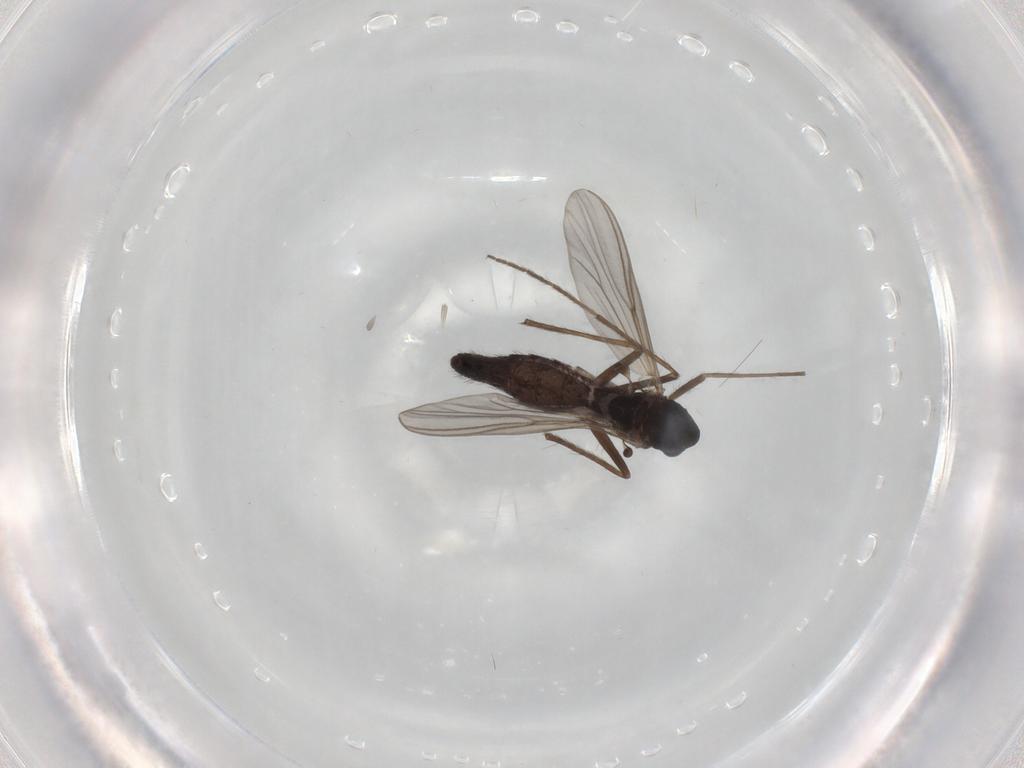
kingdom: Animalia
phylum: Arthropoda
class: Insecta
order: Diptera
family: Chironomidae
